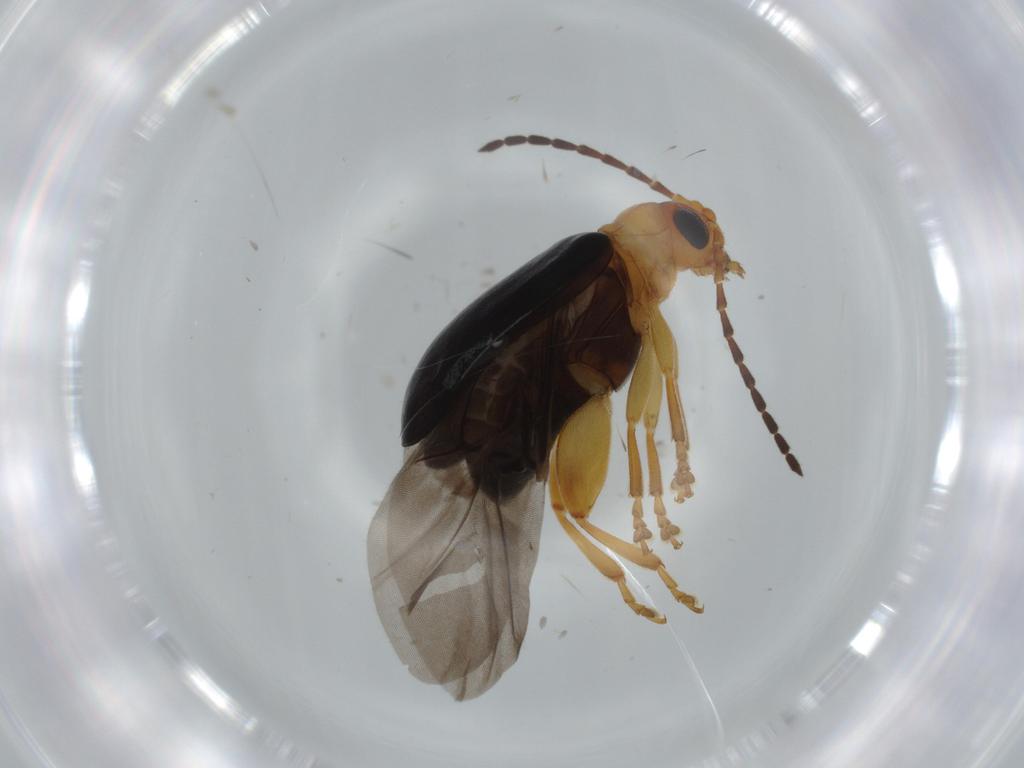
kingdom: Animalia
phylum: Arthropoda
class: Insecta
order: Coleoptera
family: Chrysomelidae
